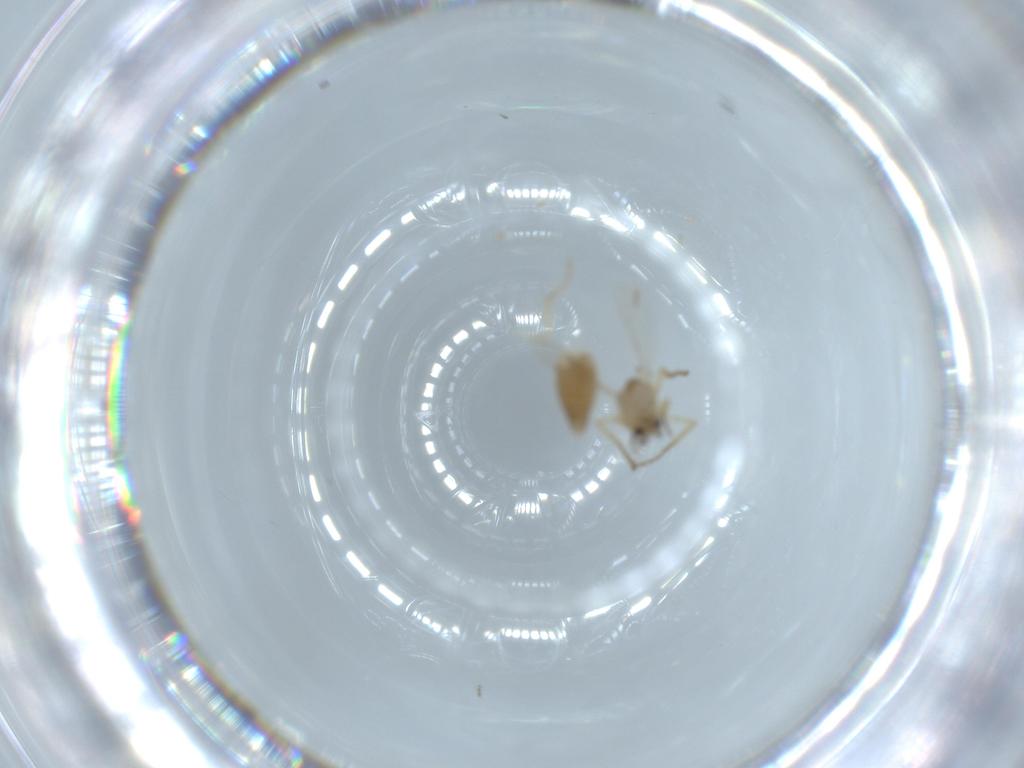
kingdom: Animalia
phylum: Arthropoda
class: Insecta
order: Diptera
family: Ceratopogonidae
